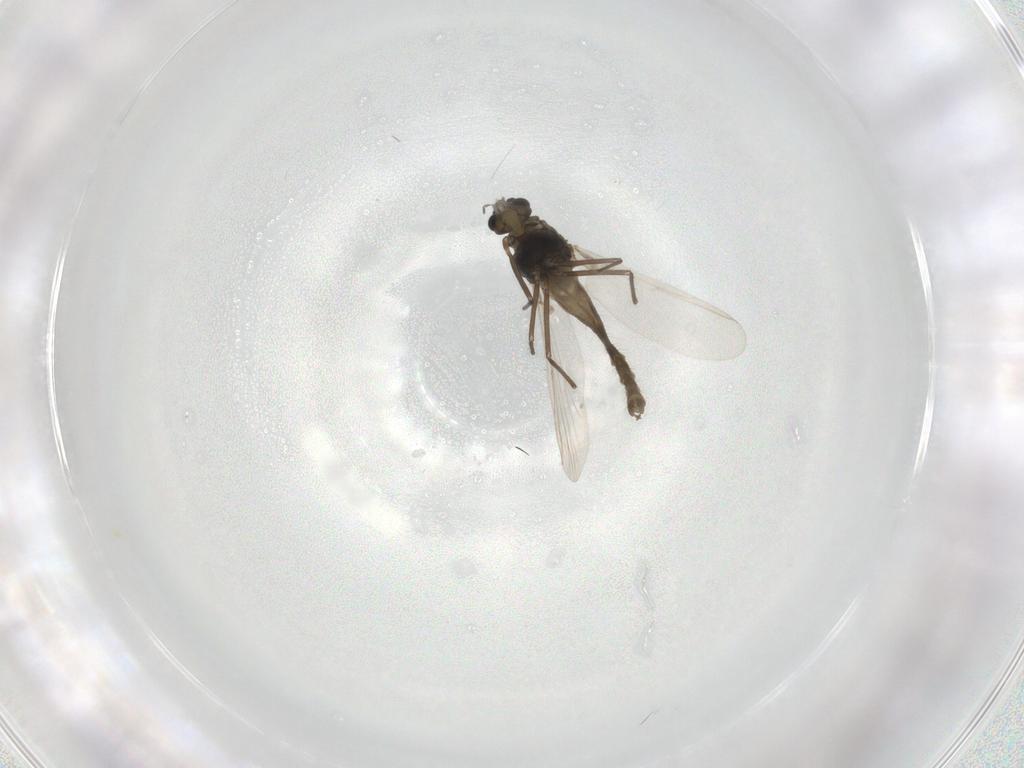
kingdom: Animalia
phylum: Arthropoda
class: Insecta
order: Diptera
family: Chironomidae
